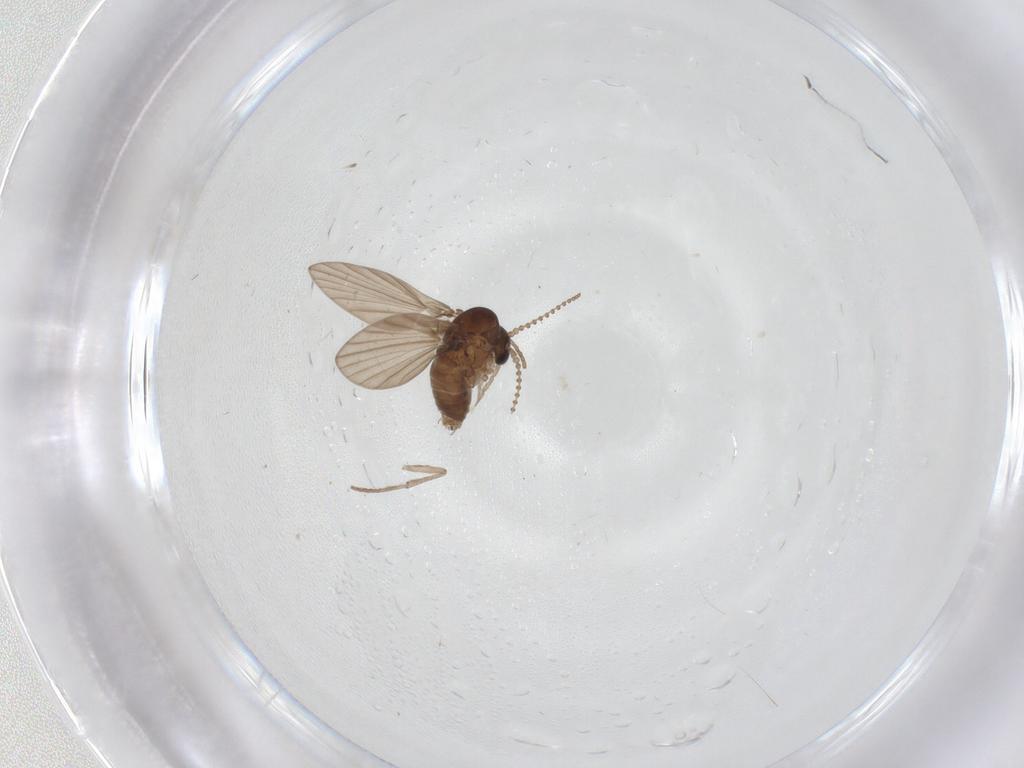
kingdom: Animalia
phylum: Arthropoda
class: Insecta
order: Diptera
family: Psychodidae
